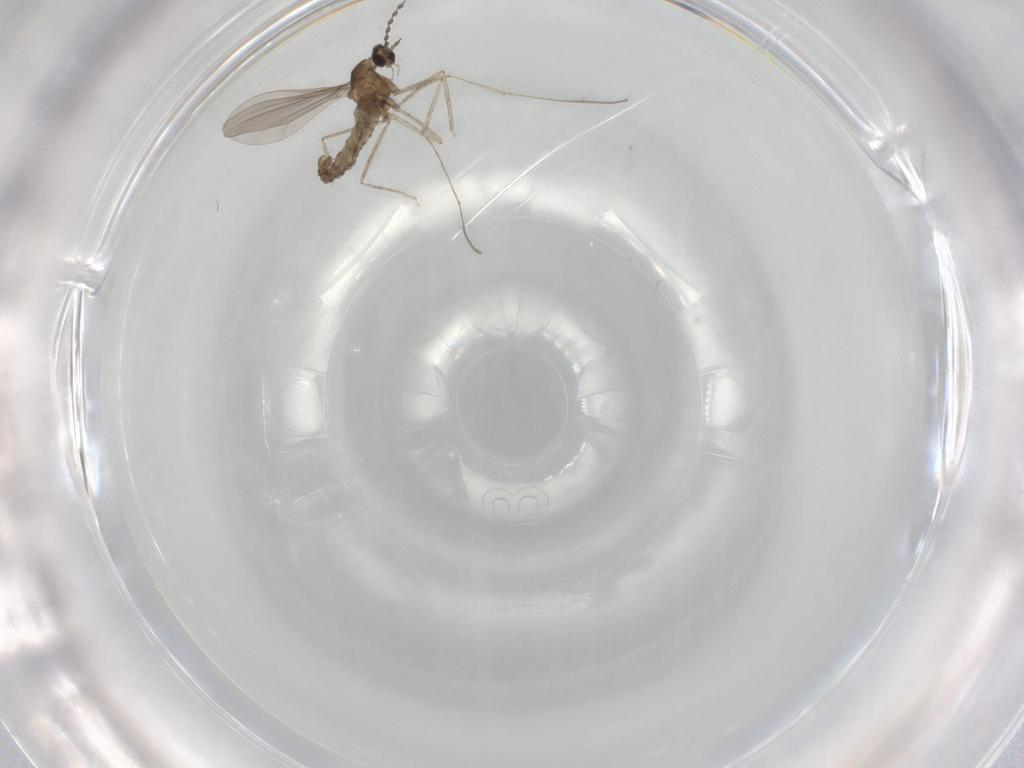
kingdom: Animalia
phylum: Arthropoda
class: Insecta
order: Diptera
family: Cecidomyiidae
